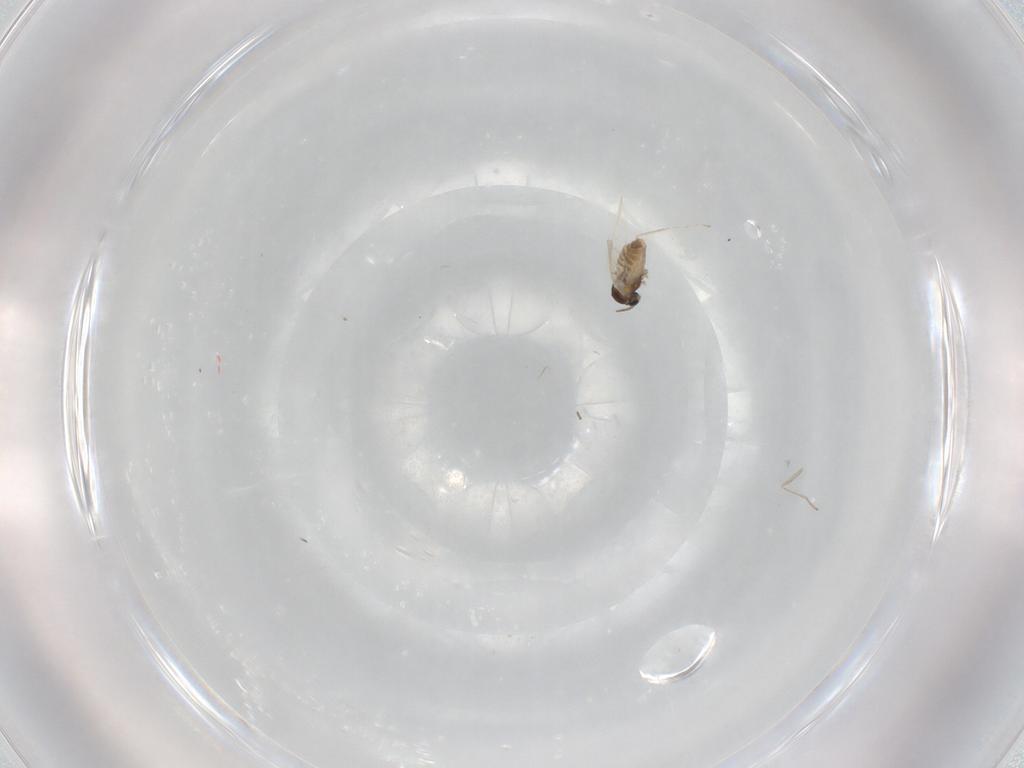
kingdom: Animalia
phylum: Arthropoda
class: Insecta
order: Diptera
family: Cecidomyiidae
